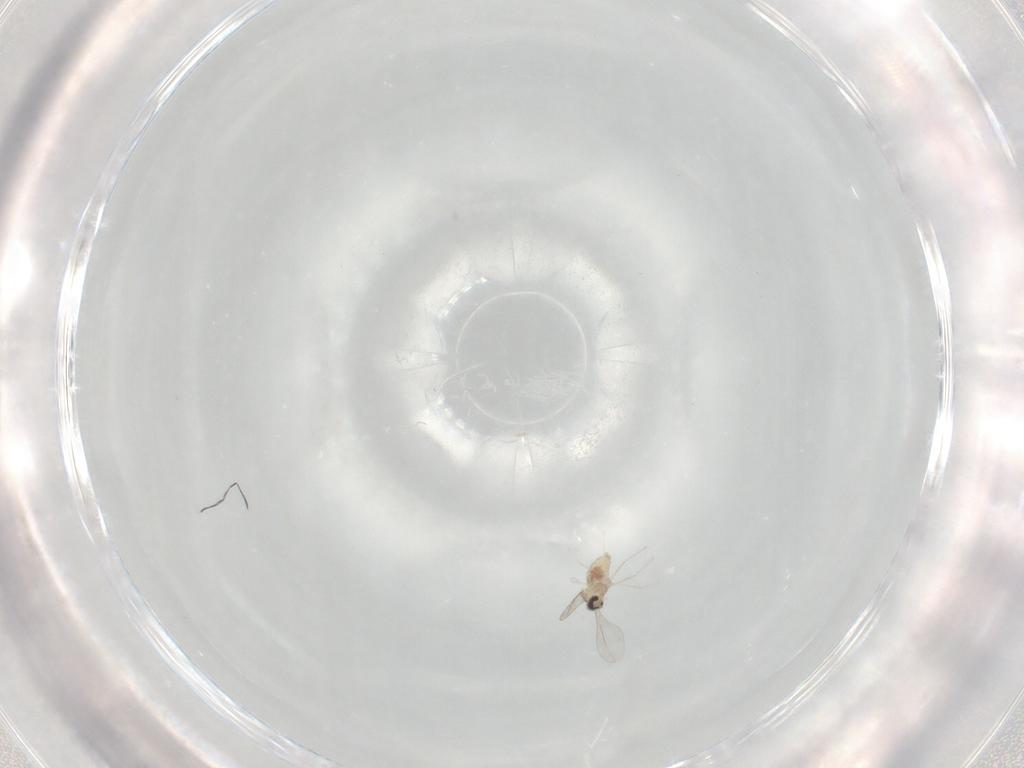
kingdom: Animalia
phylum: Arthropoda
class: Insecta
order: Diptera
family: Cecidomyiidae
